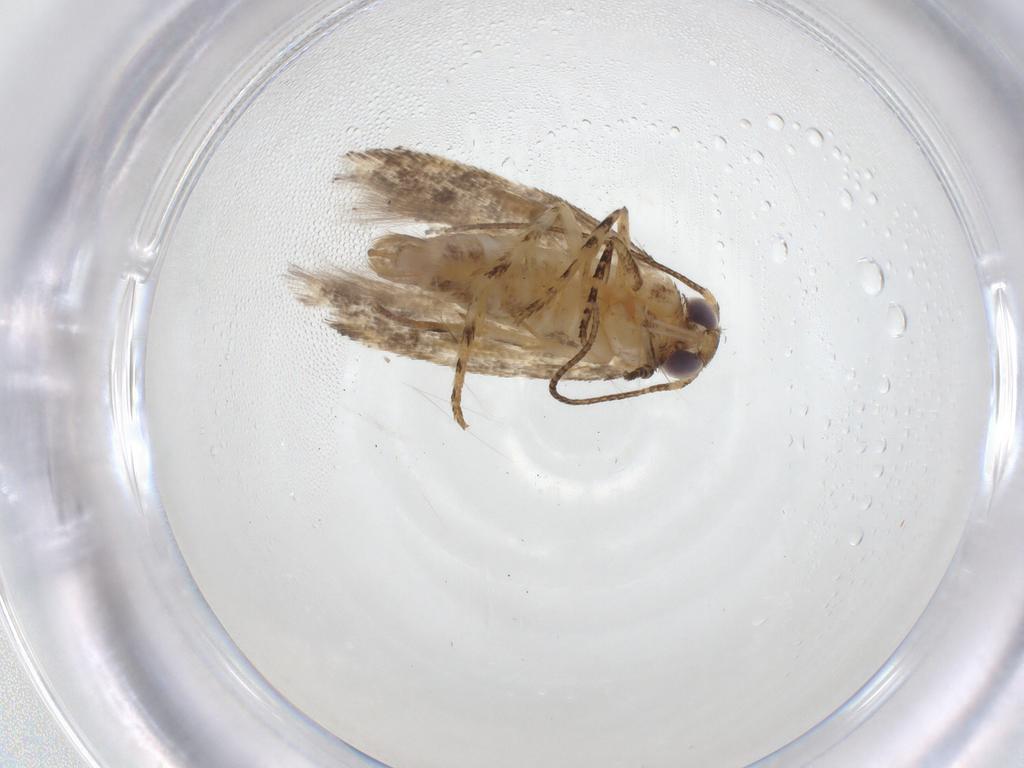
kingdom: Animalia
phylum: Arthropoda
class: Insecta
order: Lepidoptera
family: Gelechiidae
